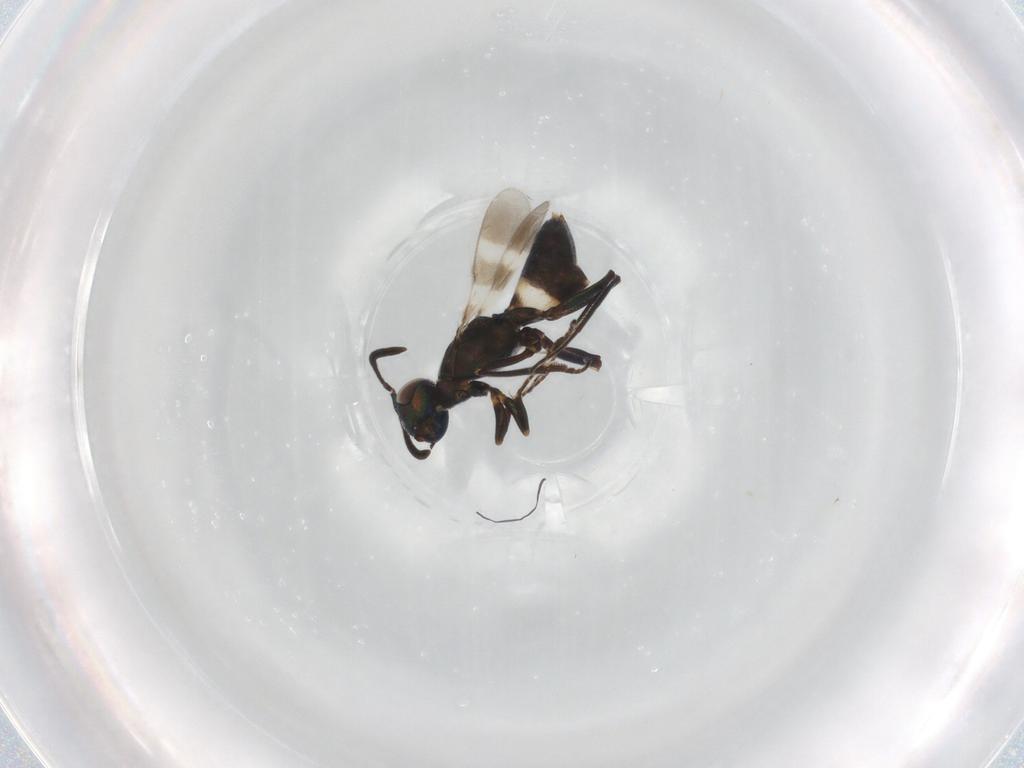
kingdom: Animalia
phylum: Arthropoda
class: Insecta
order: Hymenoptera
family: Eupelmidae
